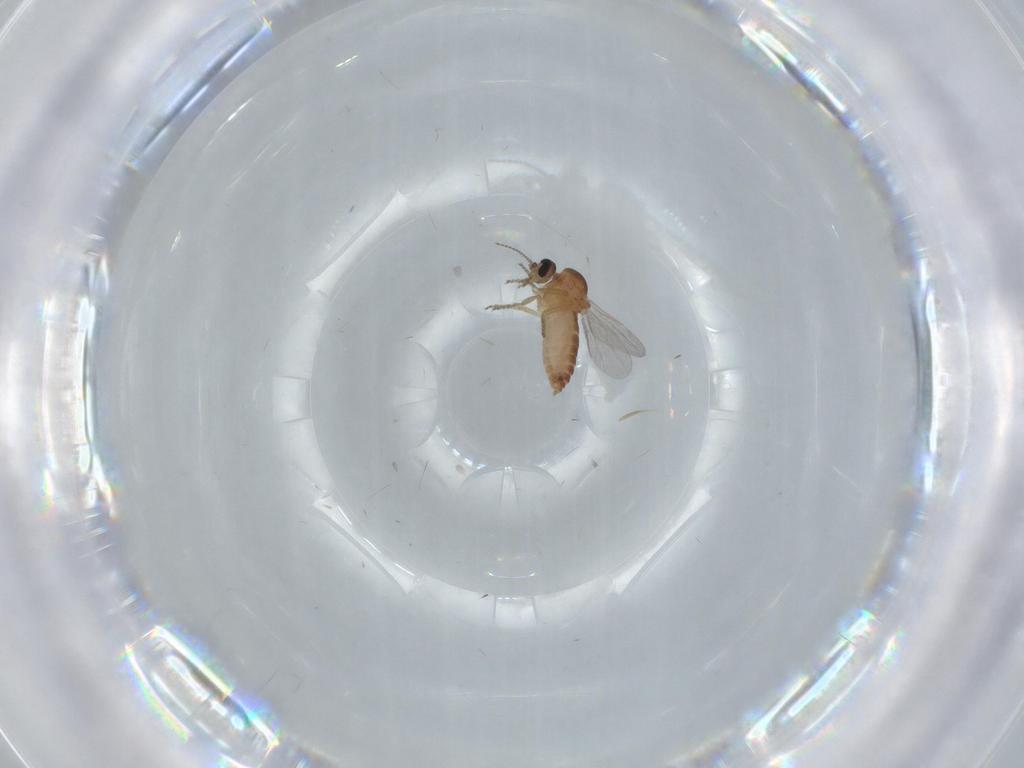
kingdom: Animalia
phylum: Arthropoda
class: Insecta
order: Diptera
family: Ceratopogonidae
